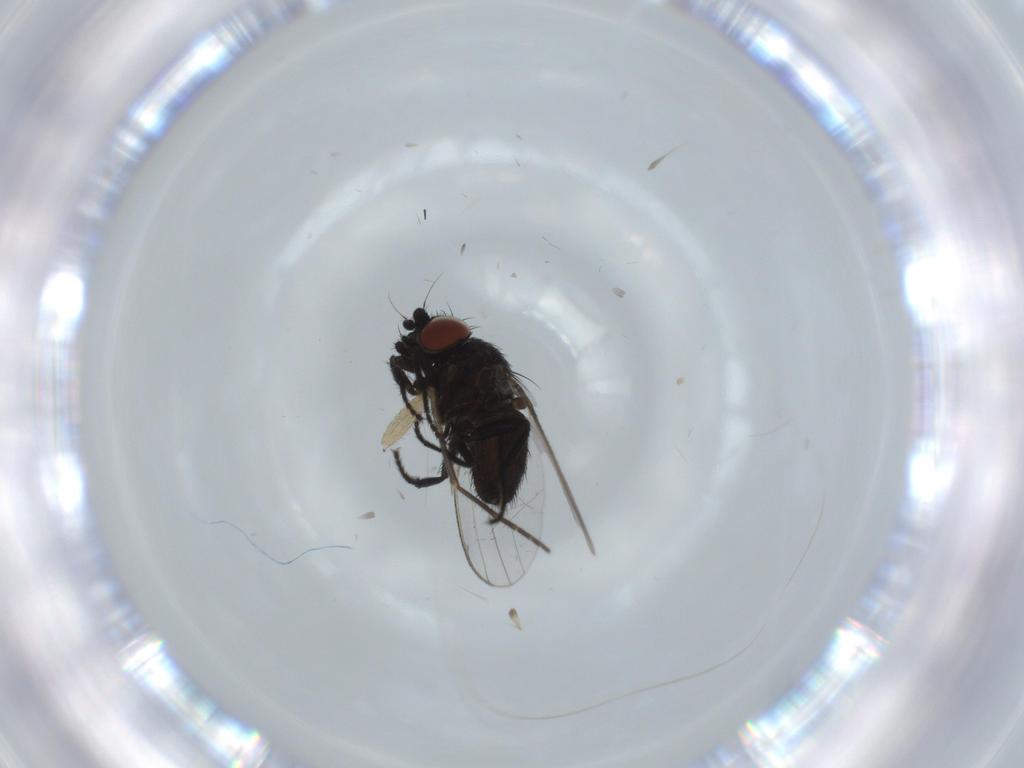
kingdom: Animalia
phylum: Arthropoda
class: Insecta
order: Diptera
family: Sciaridae
